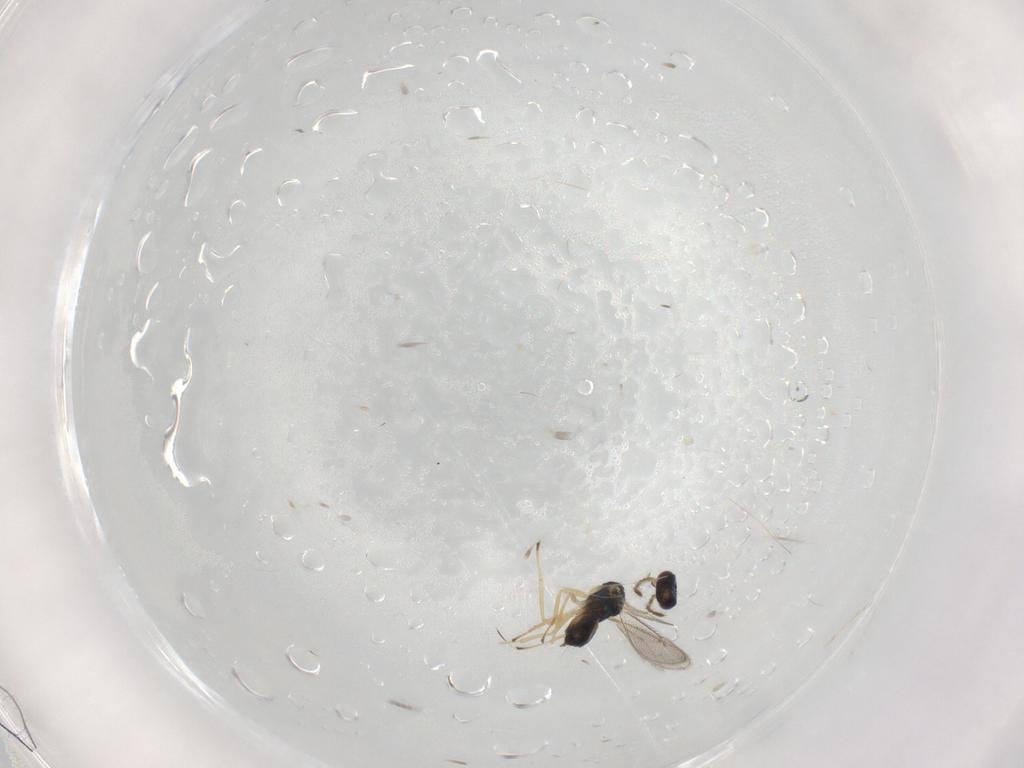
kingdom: Animalia
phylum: Arthropoda
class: Insecta
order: Hymenoptera
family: Eulophidae
